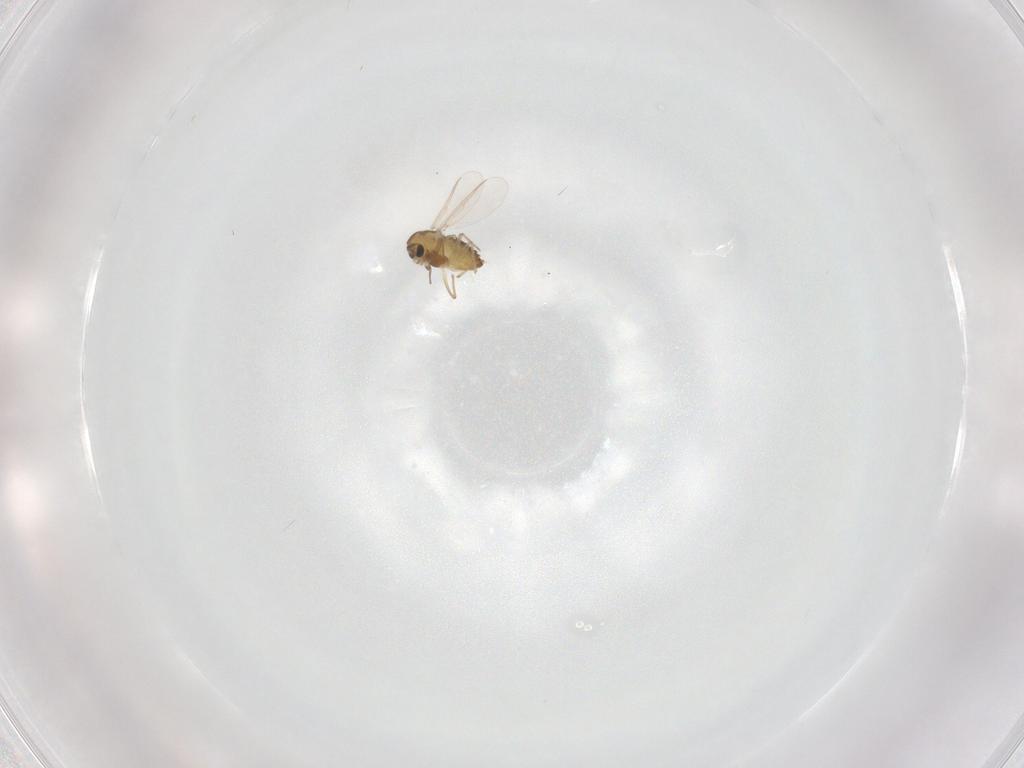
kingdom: Animalia
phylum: Arthropoda
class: Insecta
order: Diptera
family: Chironomidae
